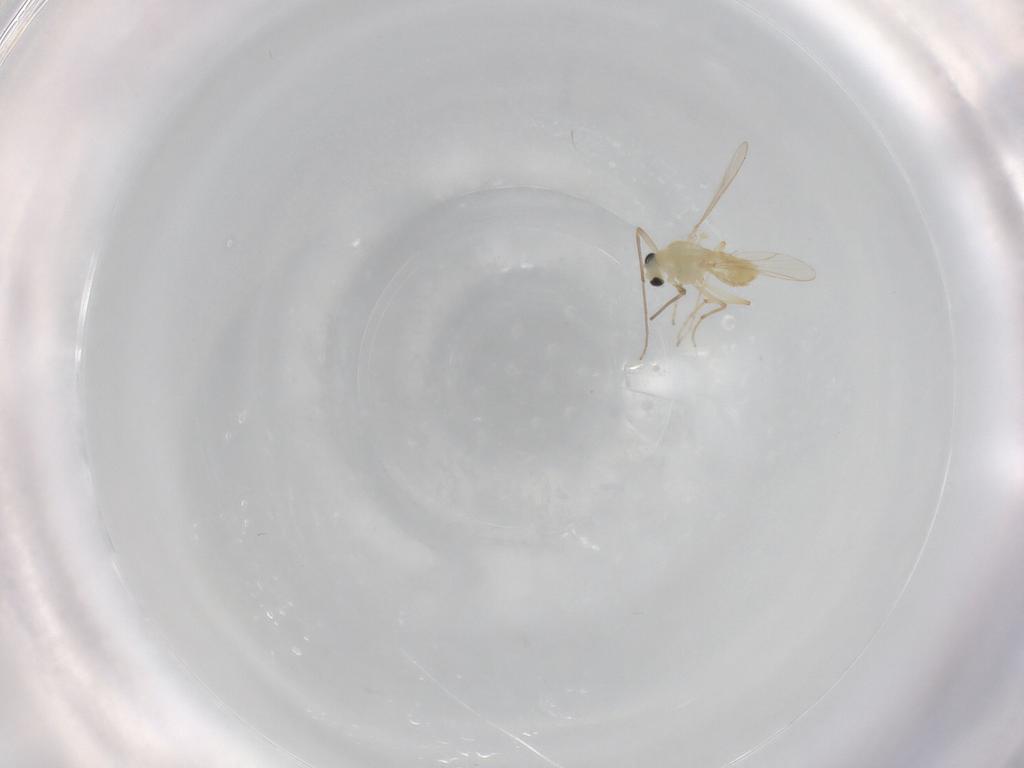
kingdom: Animalia
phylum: Arthropoda
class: Insecta
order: Diptera
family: Chironomidae
